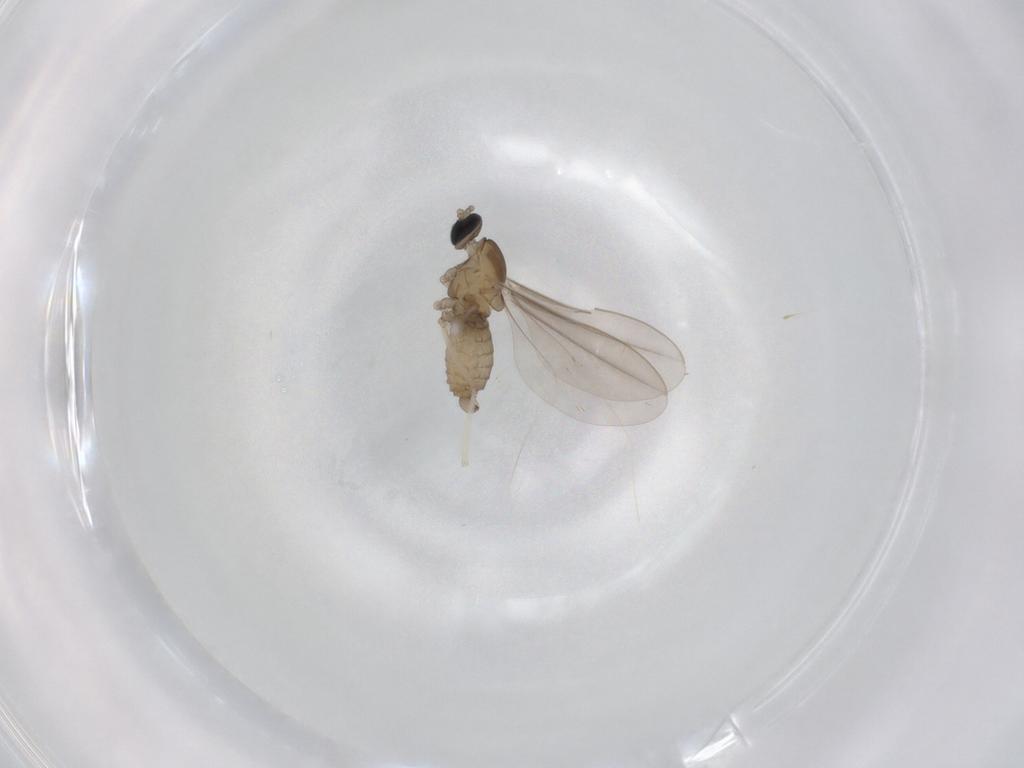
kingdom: Animalia
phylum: Arthropoda
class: Insecta
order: Diptera
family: Cecidomyiidae
